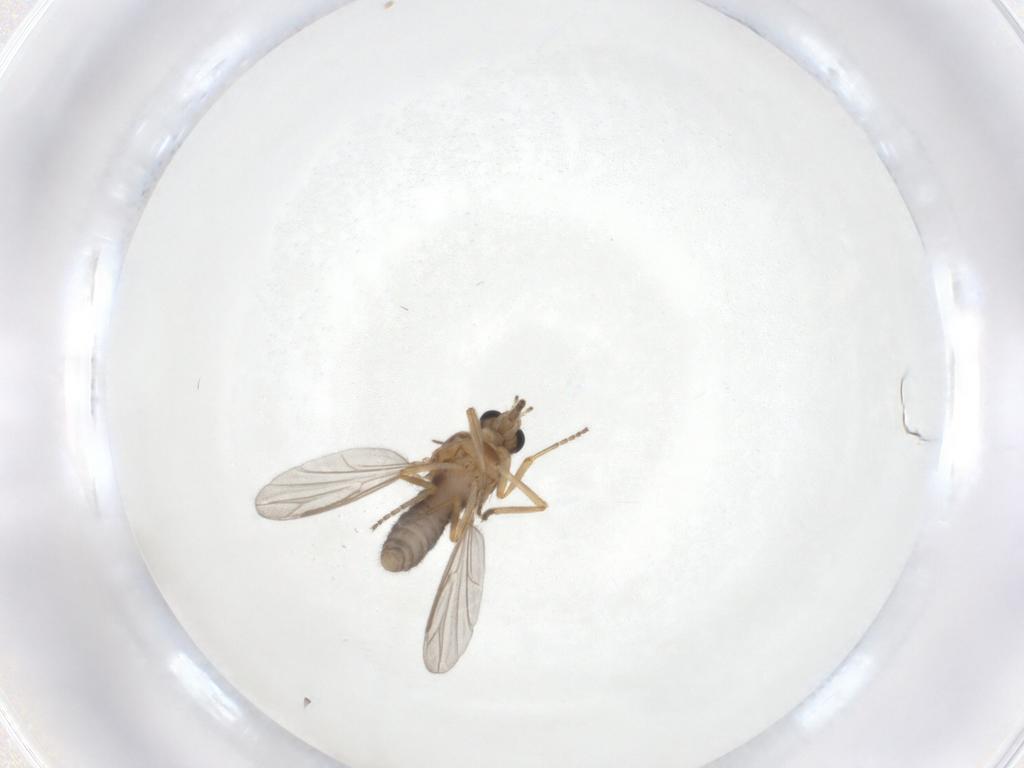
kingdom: Animalia
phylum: Arthropoda
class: Insecta
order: Diptera
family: Ceratopogonidae
